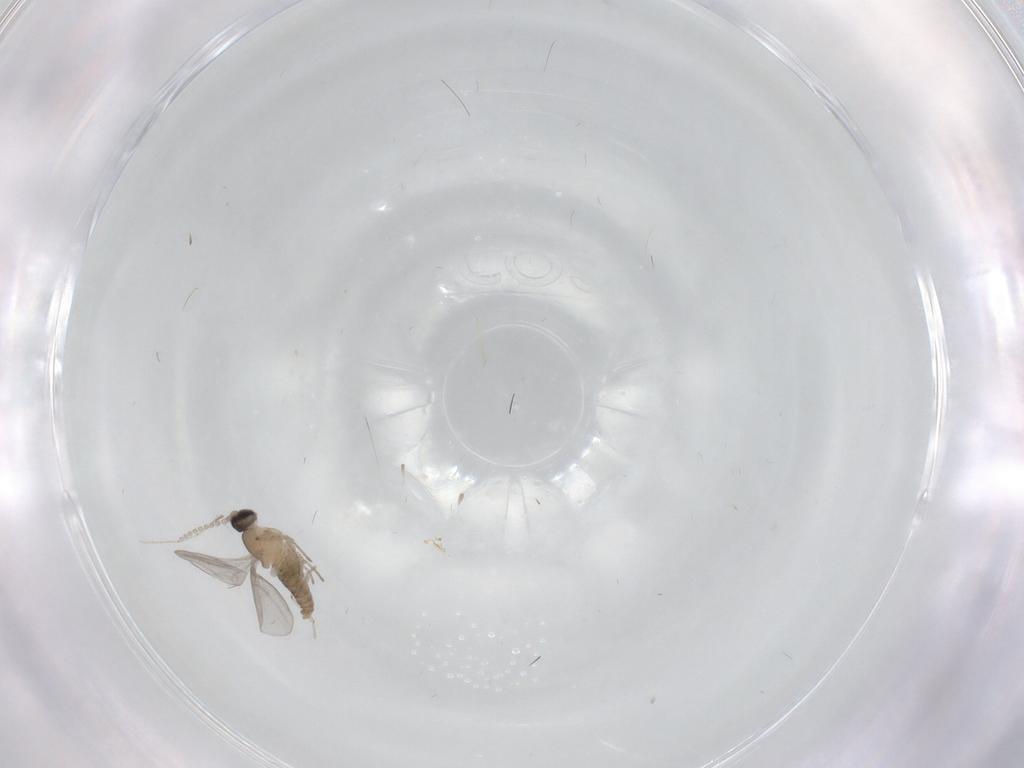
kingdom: Animalia
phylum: Arthropoda
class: Insecta
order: Diptera
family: Cecidomyiidae
